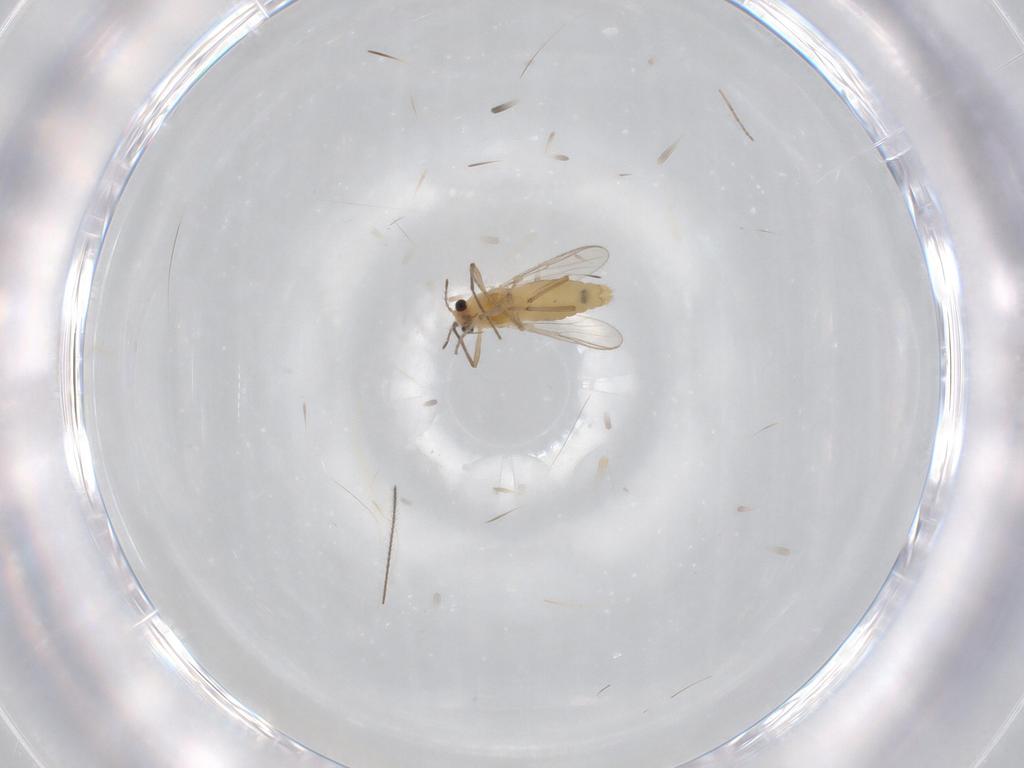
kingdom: Animalia
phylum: Arthropoda
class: Insecta
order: Diptera
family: Chironomidae
